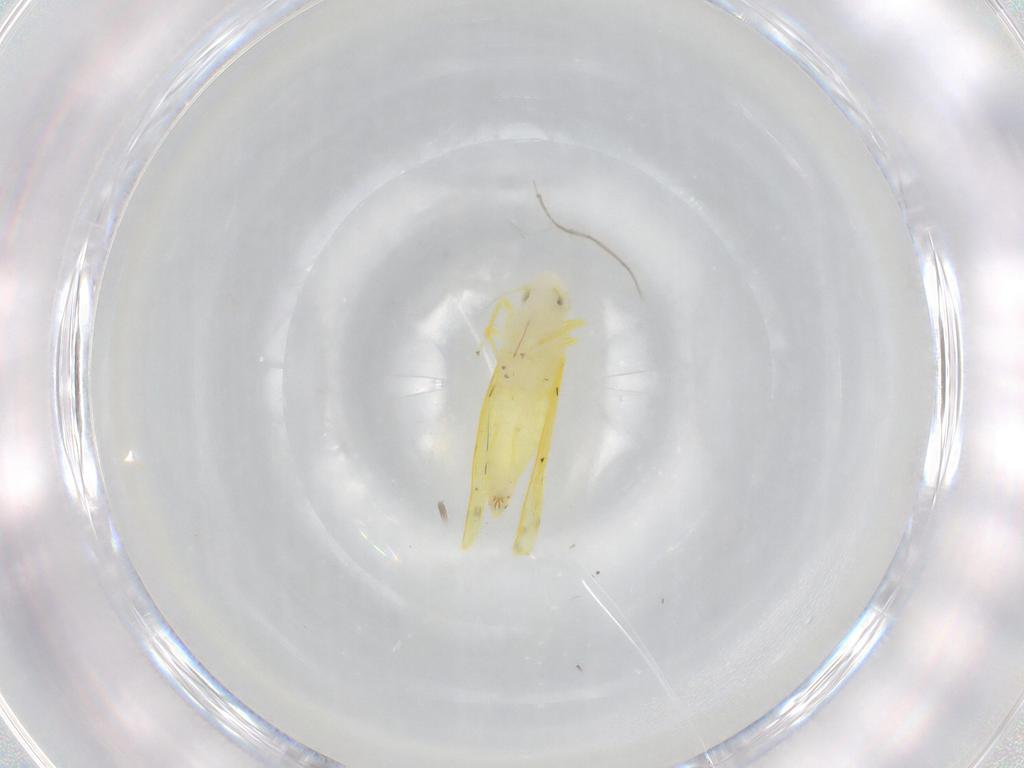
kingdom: Animalia
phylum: Arthropoda
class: Insecta
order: Hemiptera
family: Cicadellidae
